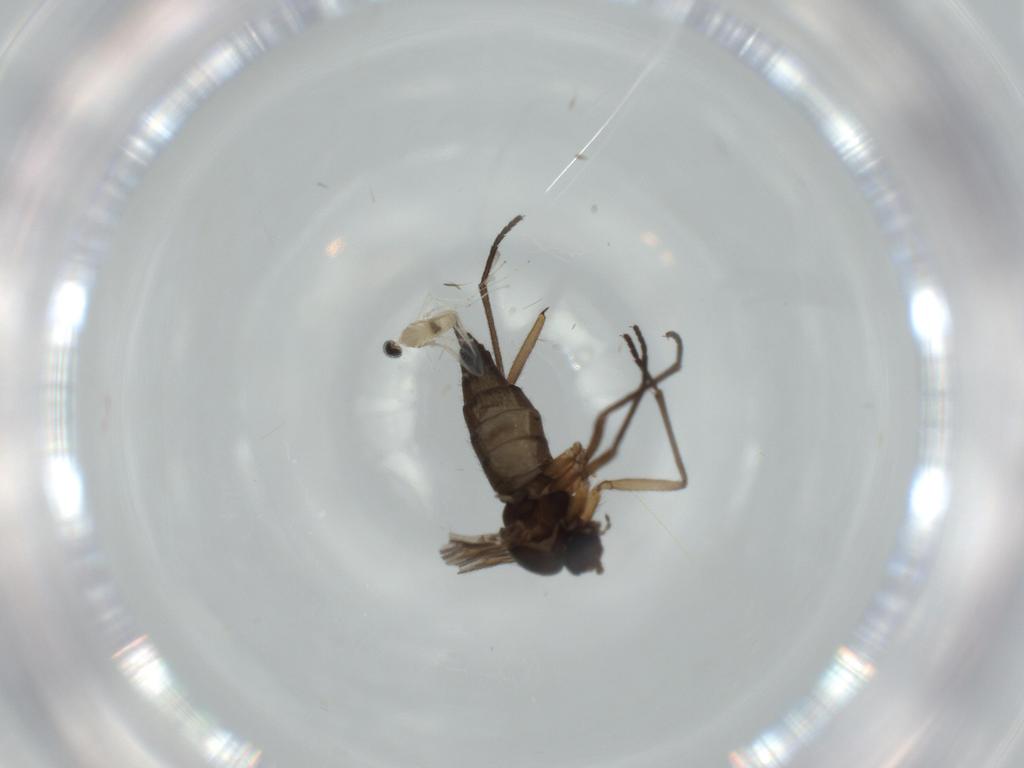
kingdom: Animalia
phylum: Arthropoda
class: Insecta
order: Diptera
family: Sciaridae
